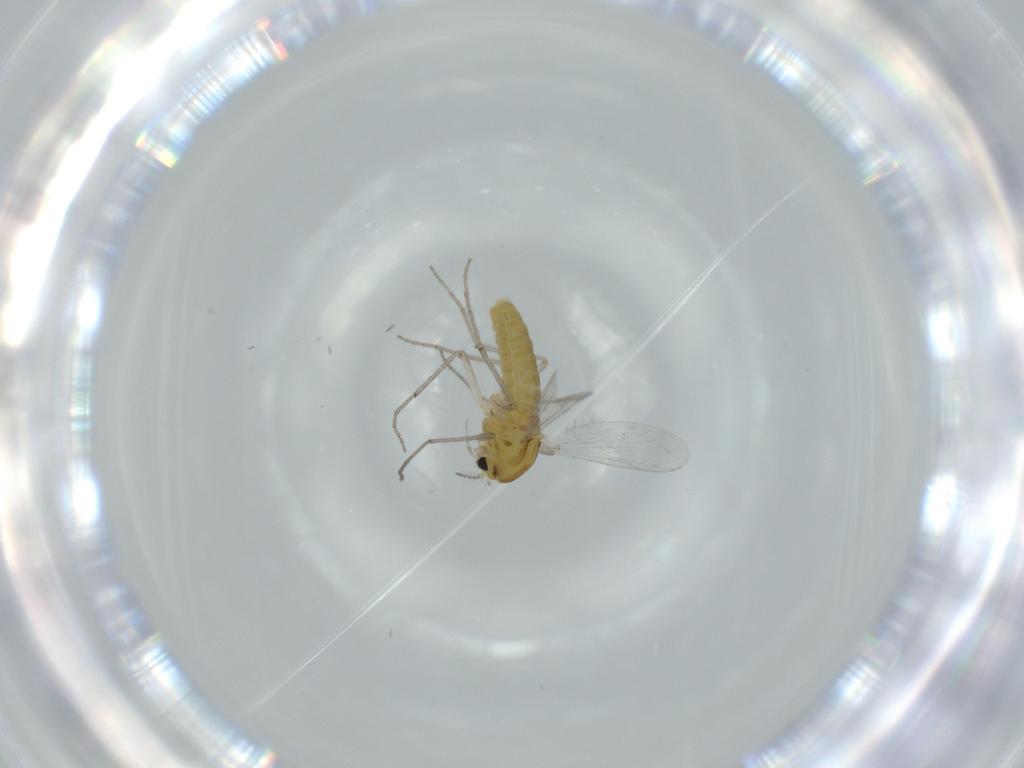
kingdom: Animalia
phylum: Arthropoda
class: Insecta
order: Diptera
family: Chironomidae
